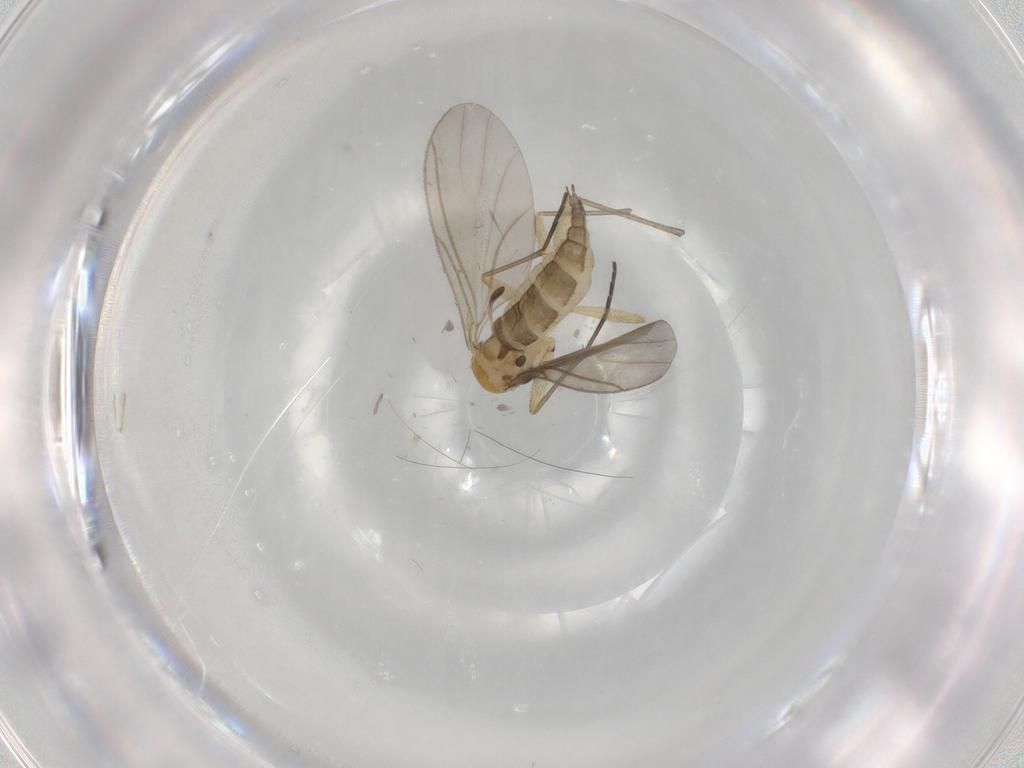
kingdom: Animalia
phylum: Arthropoda
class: Insecta
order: Diptera
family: Sciaridae
